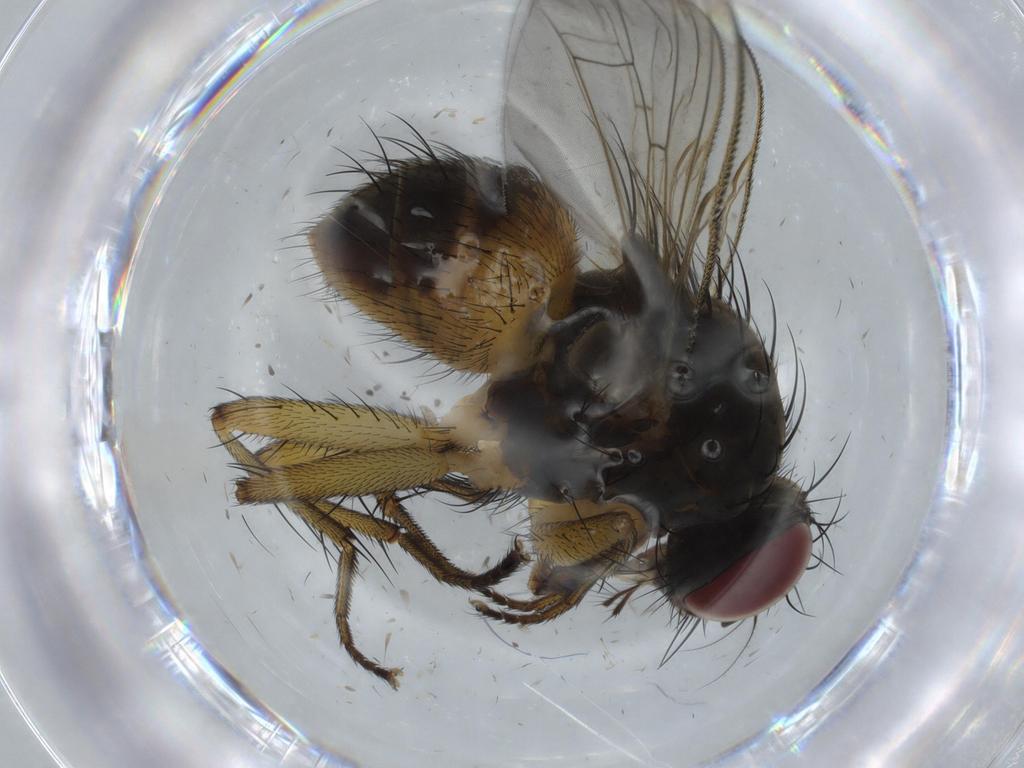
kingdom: Animalia
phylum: Arthropoda
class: Insecta
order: Diptera
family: Muscidae
